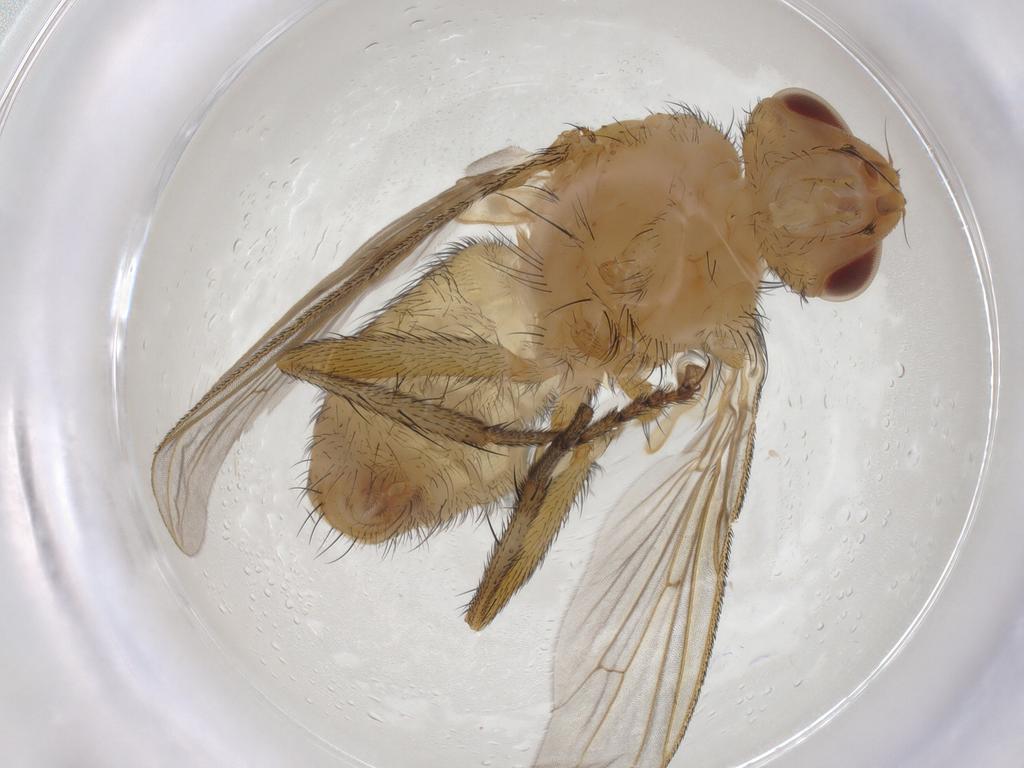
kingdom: Animalia
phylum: Arthropoda
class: Insecta
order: Diptera
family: Tachinidae
